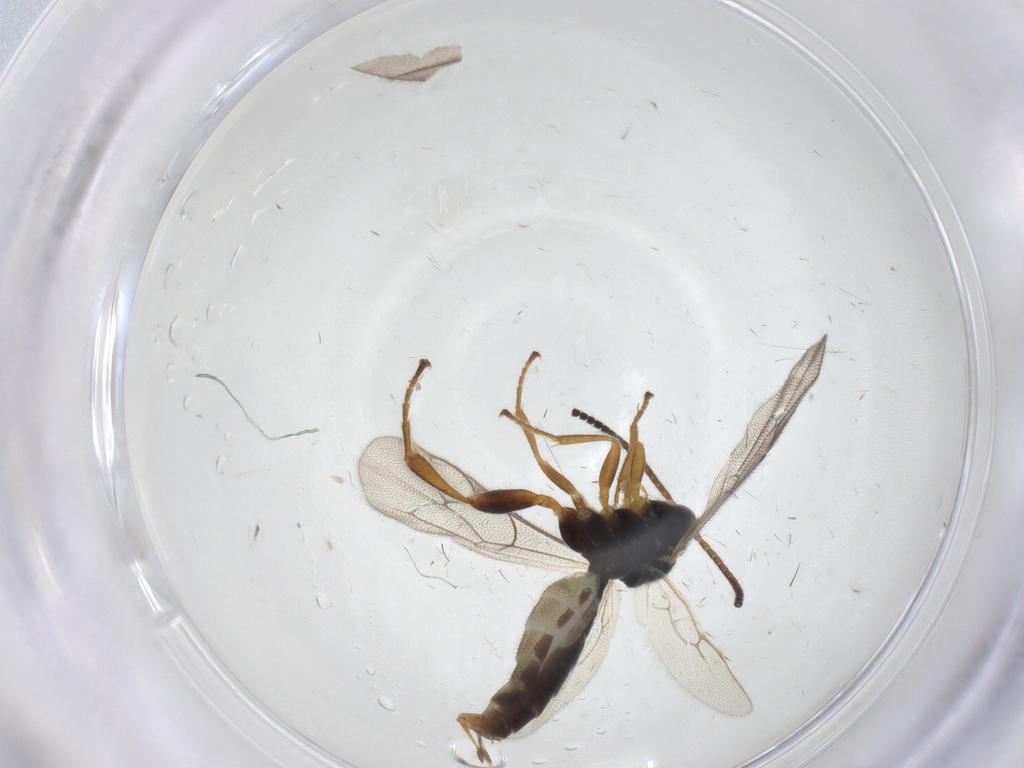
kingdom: Animalia
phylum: Arthropoda
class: Insecta
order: Hymenoptera
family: Ichneumonidae
